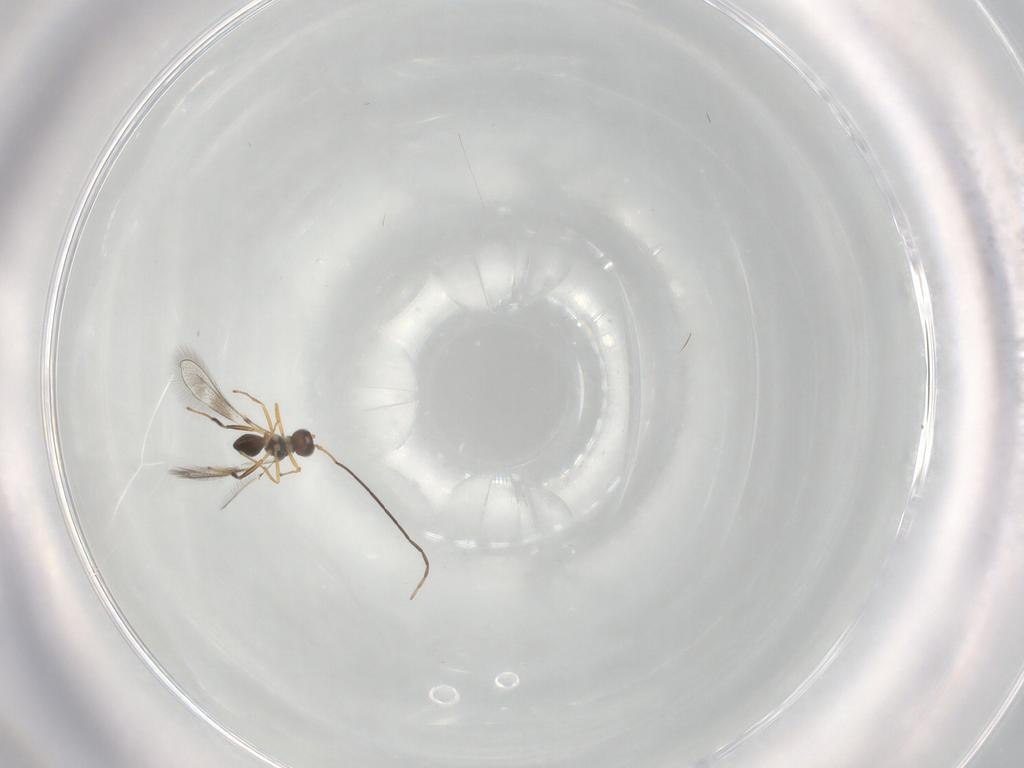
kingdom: Animalia
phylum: Arthropoda
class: Insecta
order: Hymenoptera
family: Mymaridae
